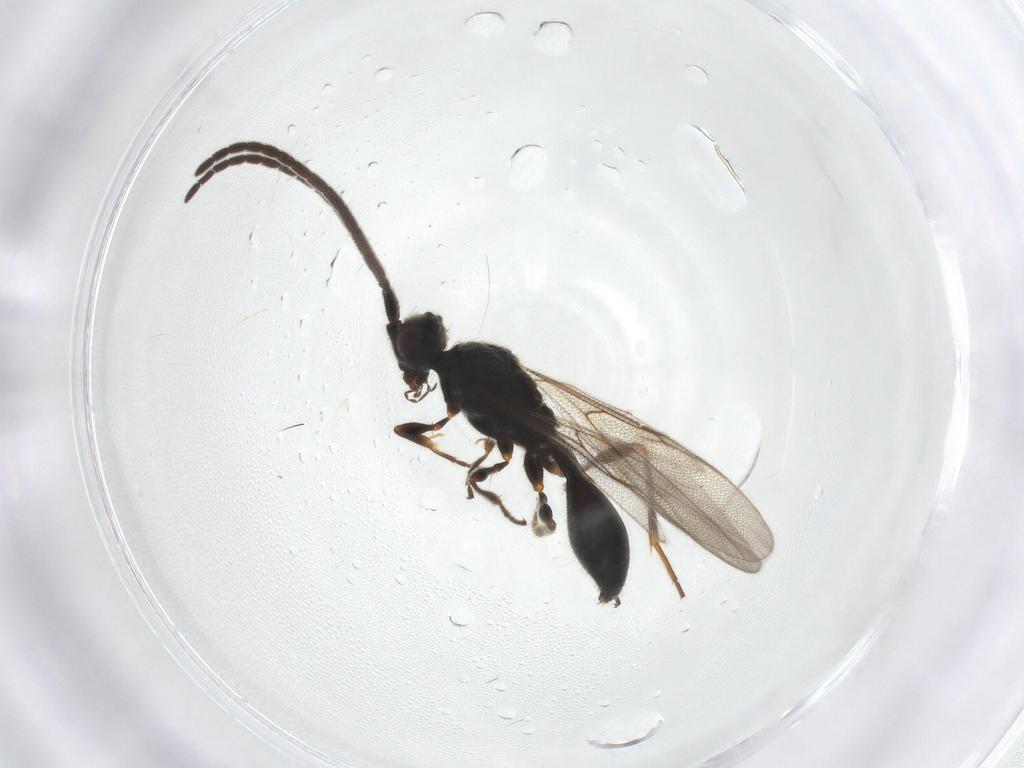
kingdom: Animalia
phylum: Arthropoda
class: Insecta
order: Hymenoptera
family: Diapriidae
